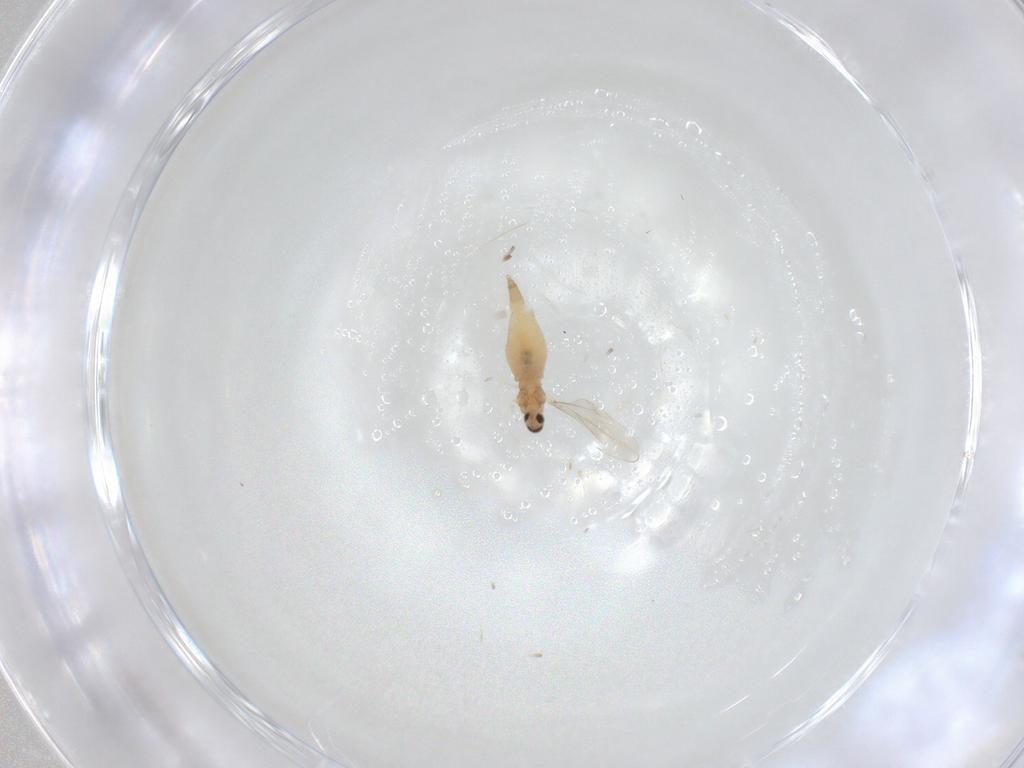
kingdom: Animalia
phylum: Arthropoda
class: Insecta
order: Diptera
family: Cecidomyiidae
